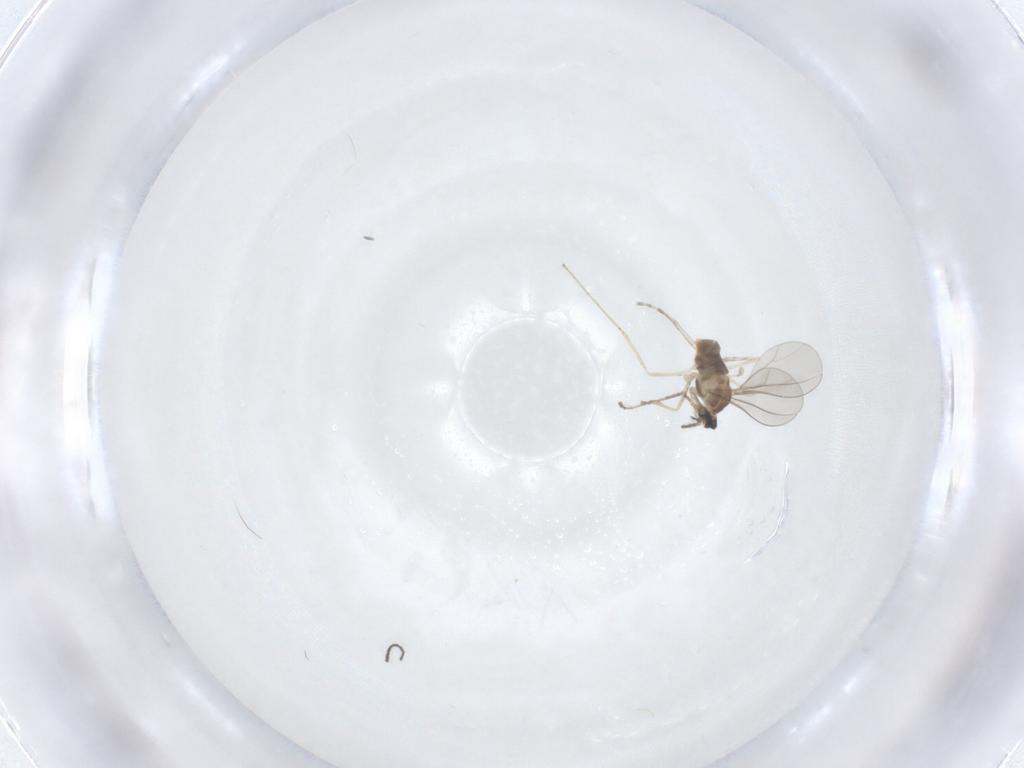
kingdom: Animalia
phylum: Arthropoda
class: Insecta
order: Diptera
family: Cecidomyiidae
